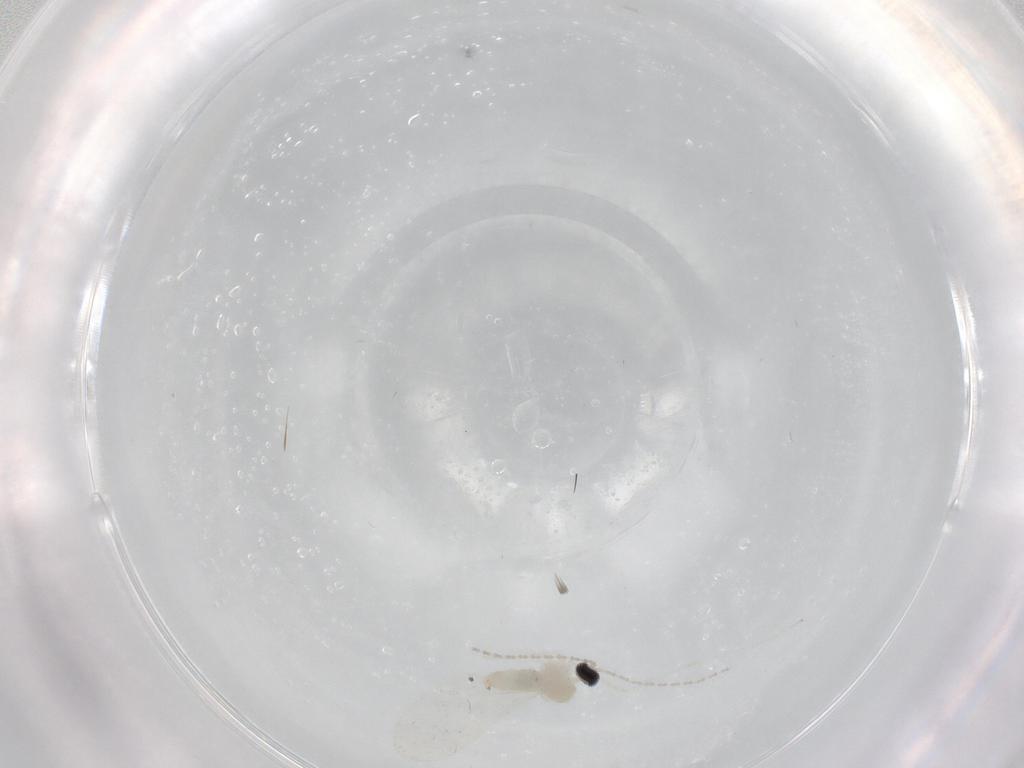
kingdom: Animalia
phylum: Arthropoda
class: Insecta
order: Diptera
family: Cecidomyiidae
